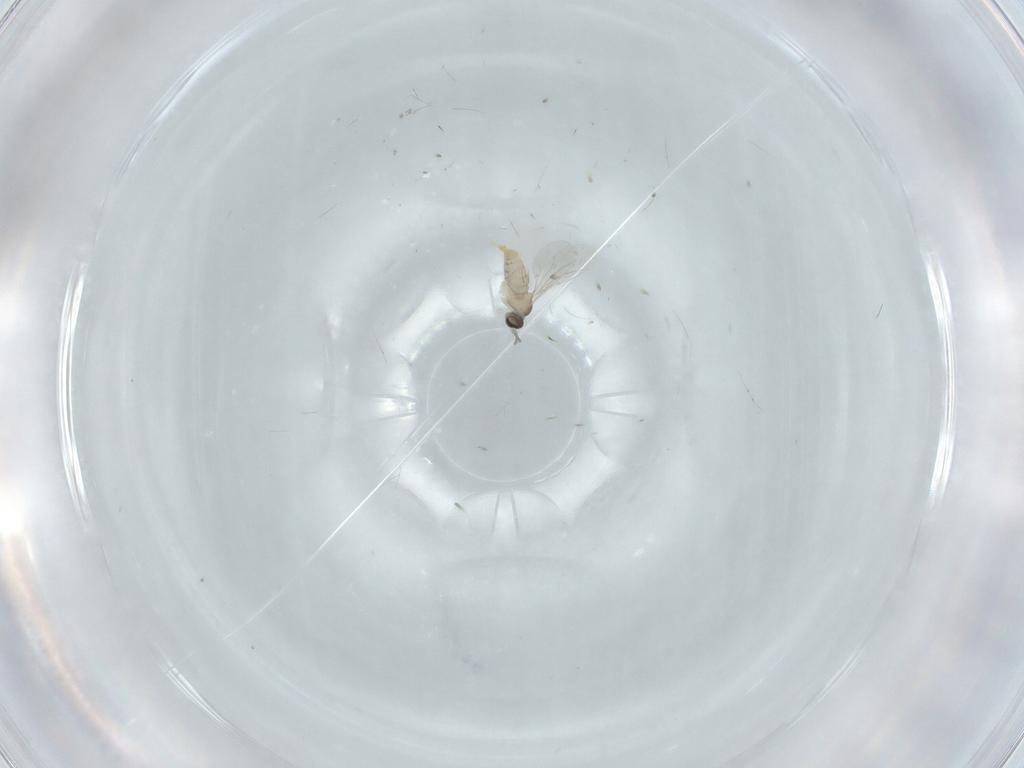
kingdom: Animalia
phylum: Arthropoda
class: Insecta
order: Diptera
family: Cecidomyiidae
